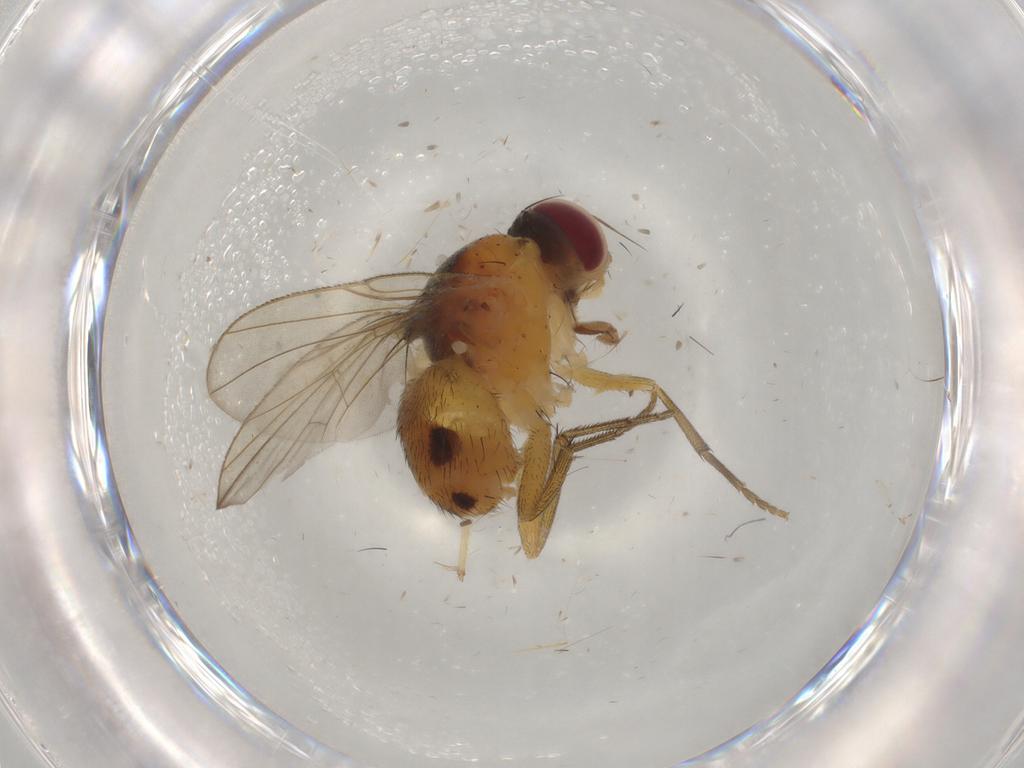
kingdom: Animalia
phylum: Arthropoda
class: Insecta
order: Diptera
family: Muscidae
